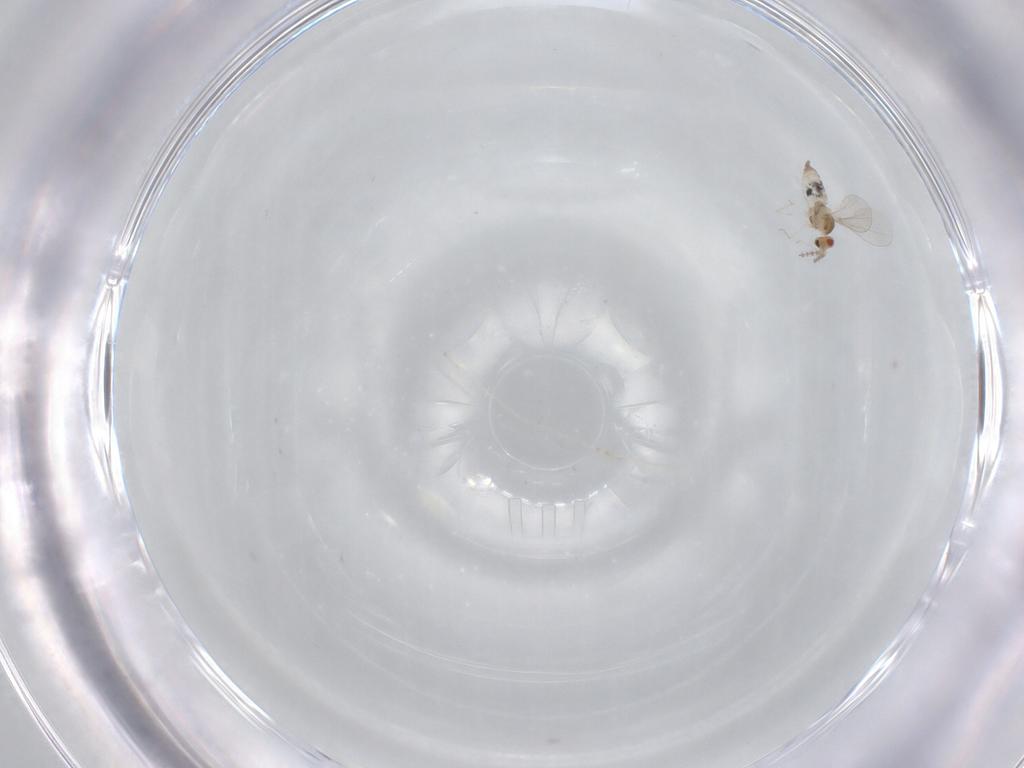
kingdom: Animalia
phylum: Arthropoda
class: Insecta
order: Diptera
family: Cecidomyiidae
